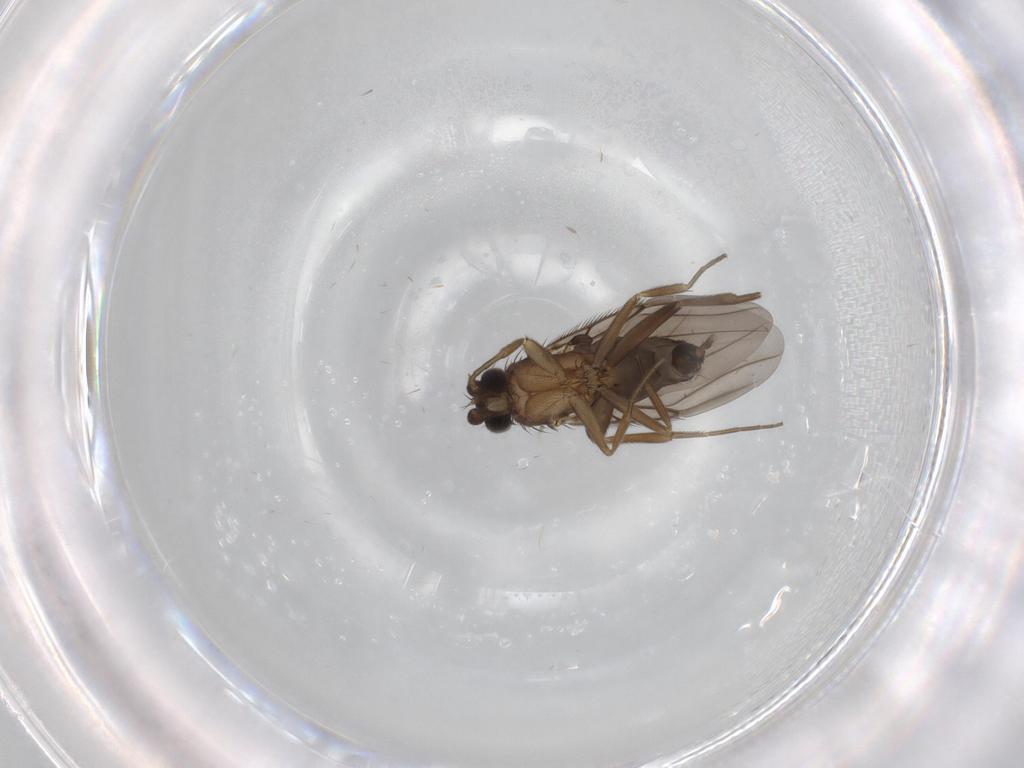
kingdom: Animalia
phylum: Arthropoda
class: Insecta
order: Diptera
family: Phoridae
